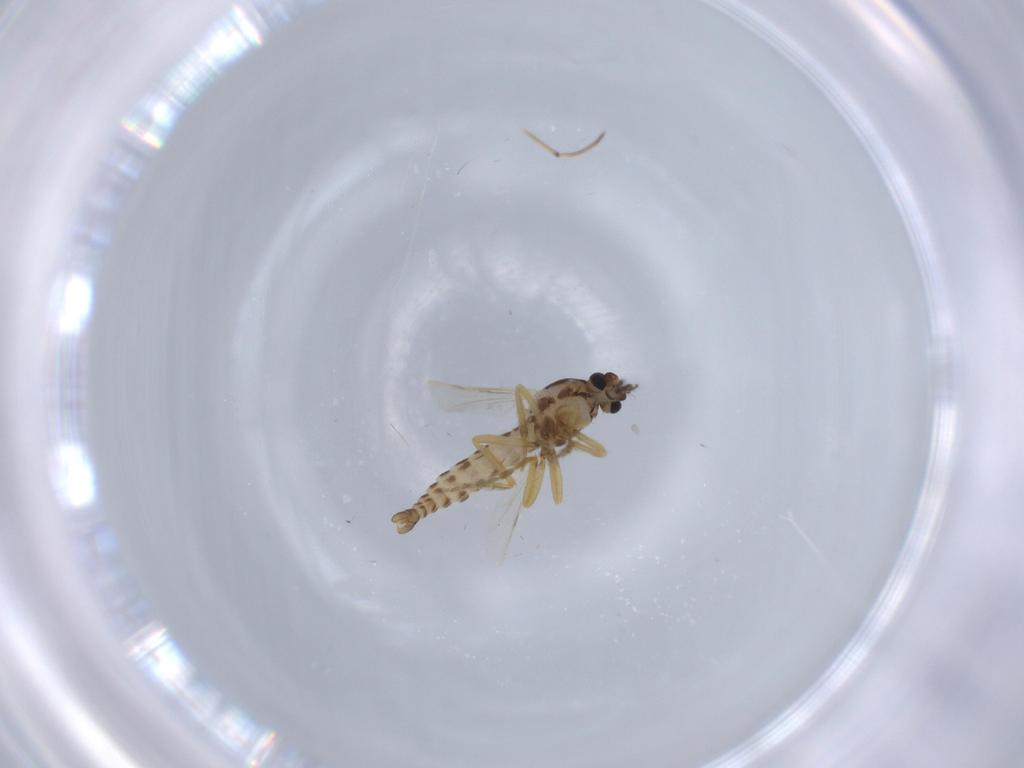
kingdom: Animalia
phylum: Arthropoda
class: Insecta
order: Diptera
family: Ceratopogonidae
